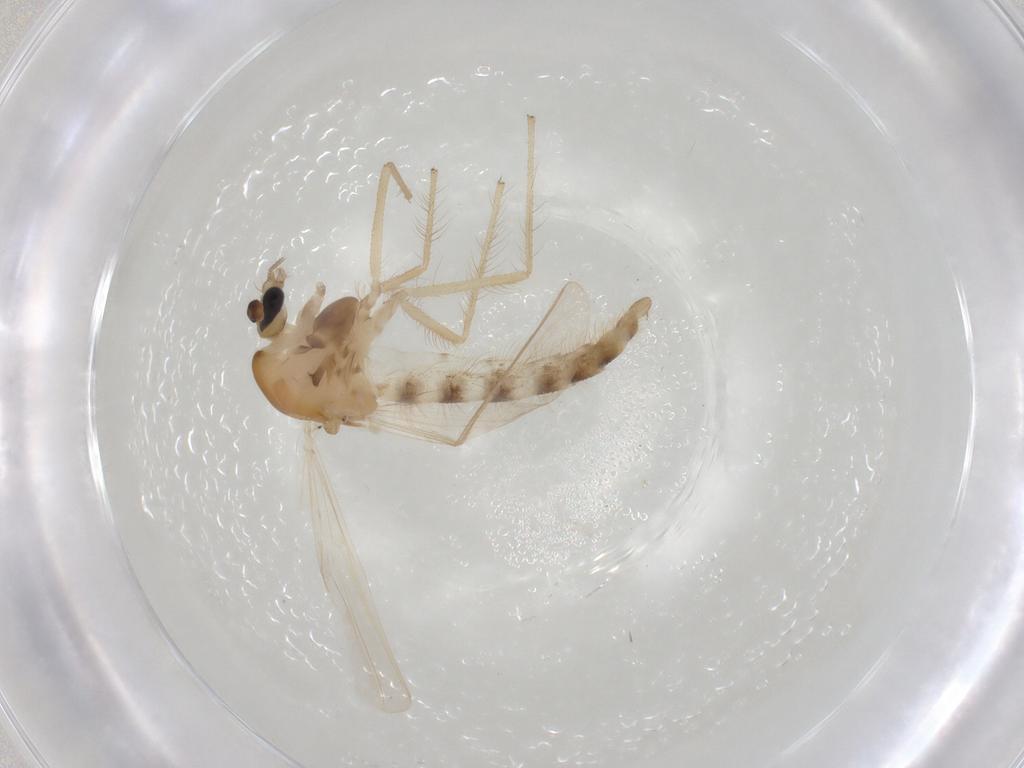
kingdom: Animalia
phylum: Arthropoda
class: Insecta
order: Diptera
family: Chironomidae
